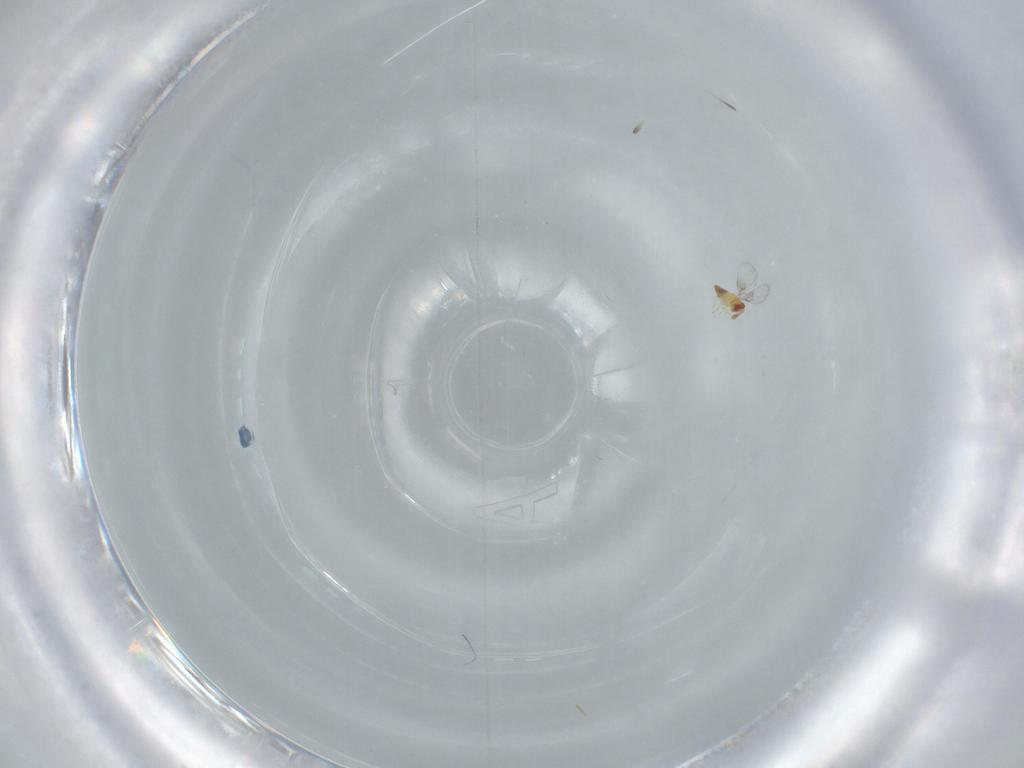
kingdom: Animalia
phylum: Arthropoda
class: Insecta
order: Hymenoptera
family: Trichogrammatidae
